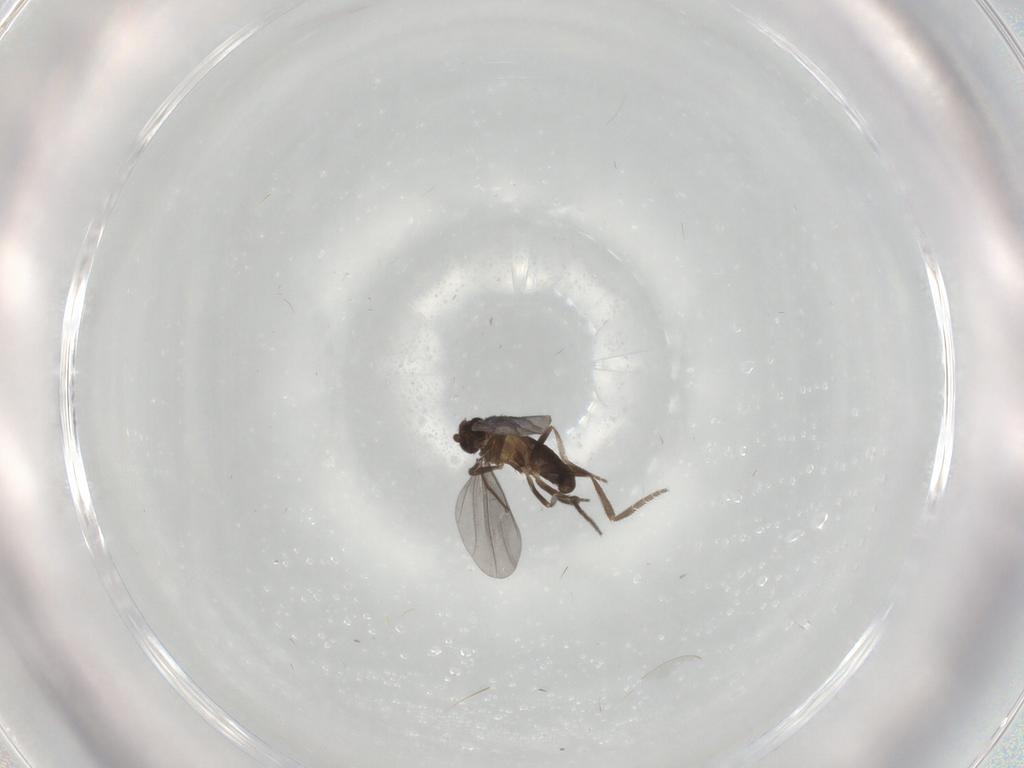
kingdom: Animalia
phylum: Arthropoda
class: Insecta
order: Diptera
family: Phoridae
